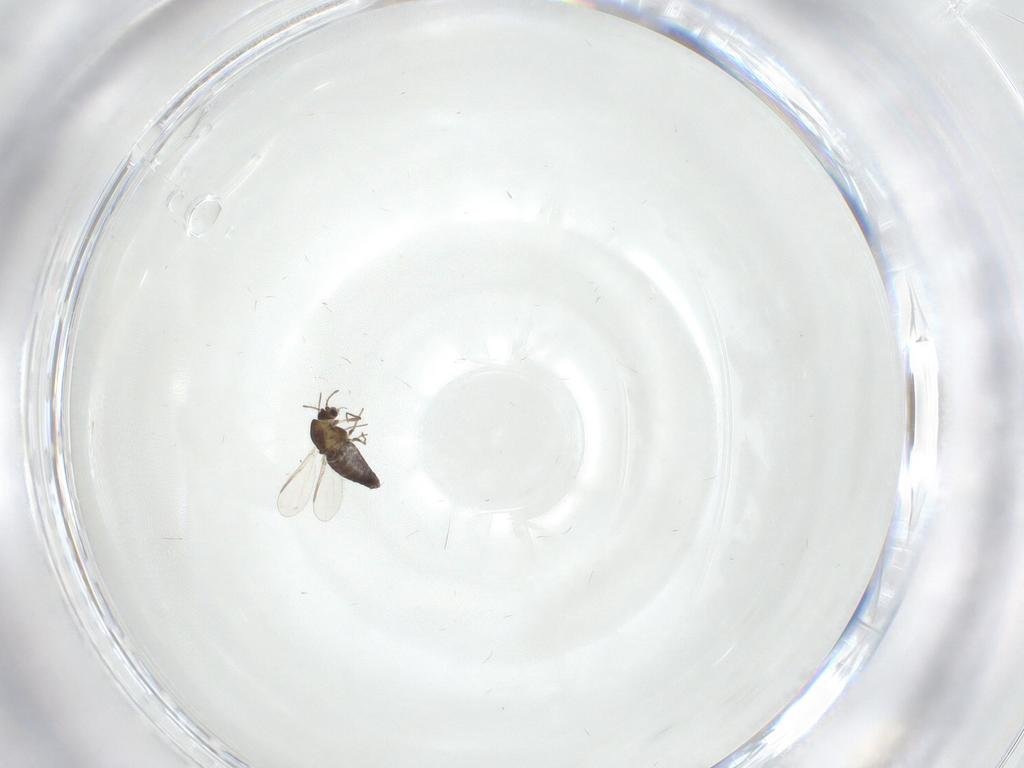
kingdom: Animalia
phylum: Arthropoda
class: Insecta
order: Diptera
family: Chironomidae
